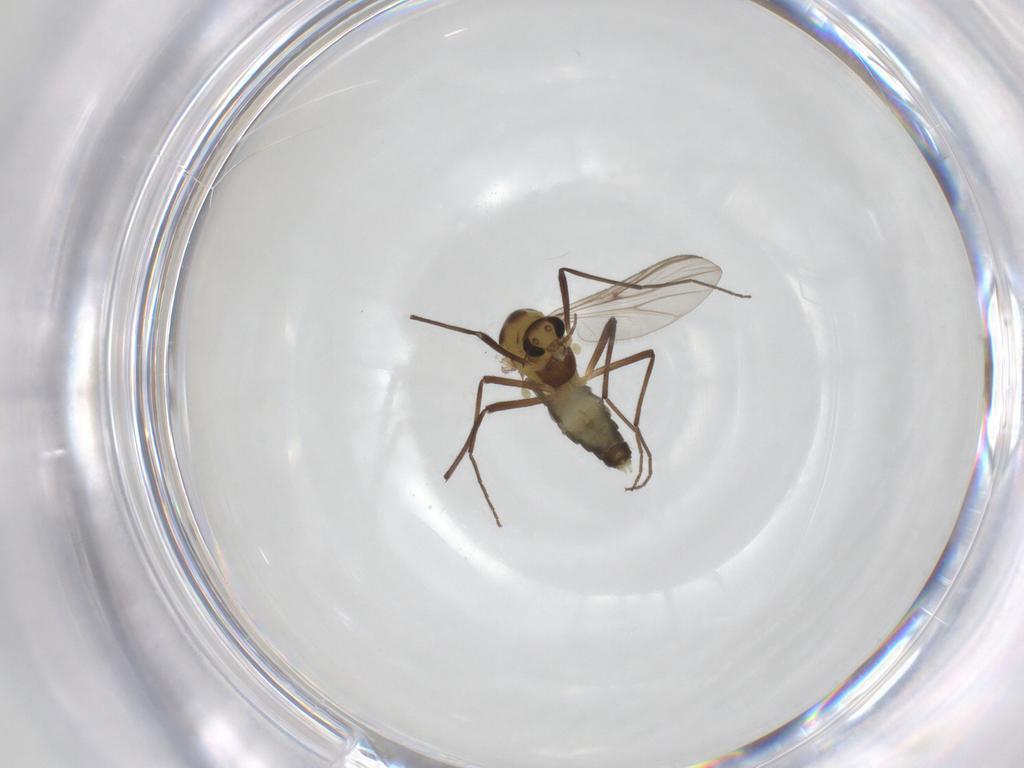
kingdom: Animalia
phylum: Arthropoda
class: Insecta
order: Diptera
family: Chironomidae
